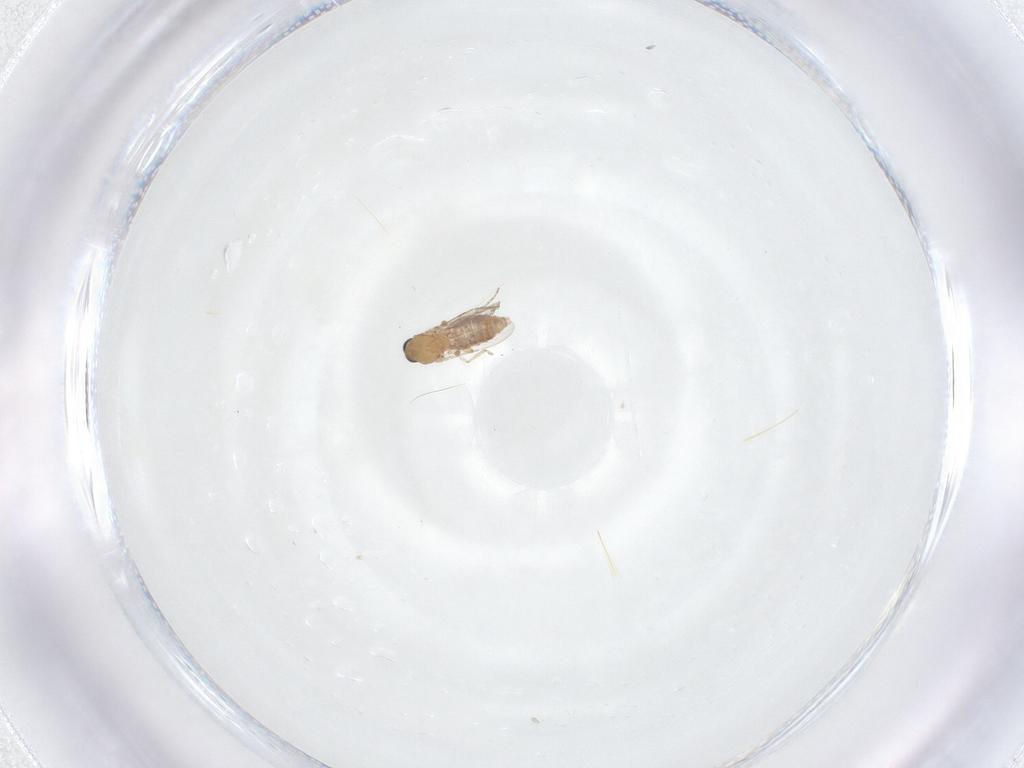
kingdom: Animalia
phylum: Arthropoda
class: Insecta
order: Diptera
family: Ceratopogonidae
